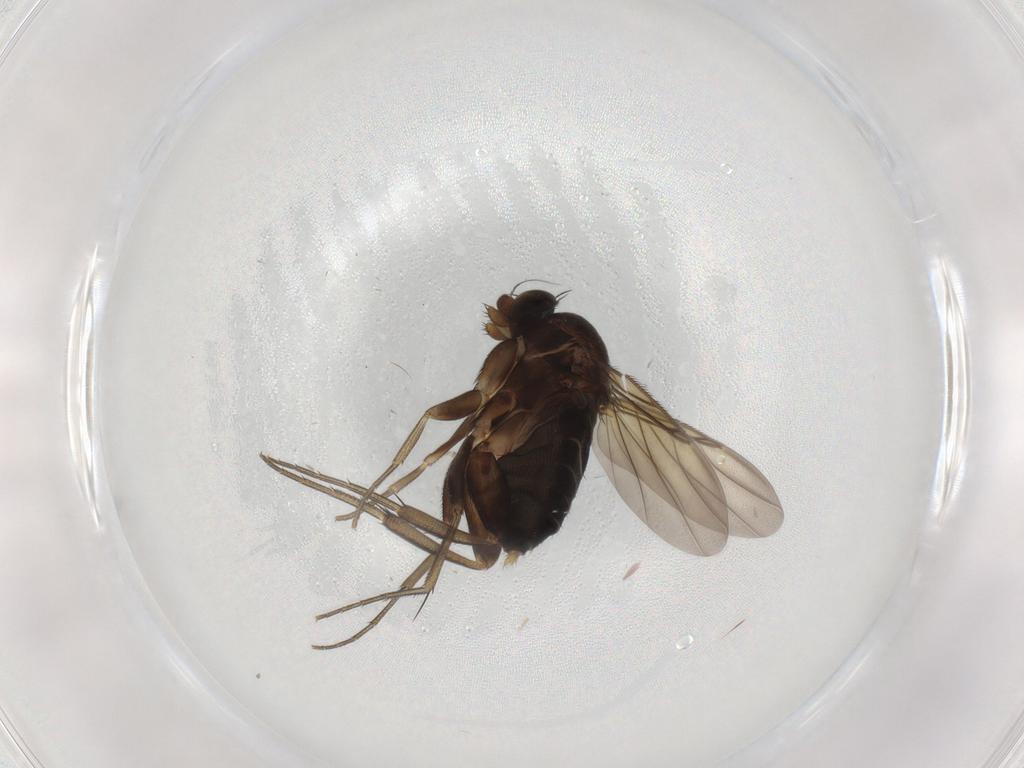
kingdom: Animalia
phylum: Arthropoda
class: Insecta
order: Diptera
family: Phoridae
